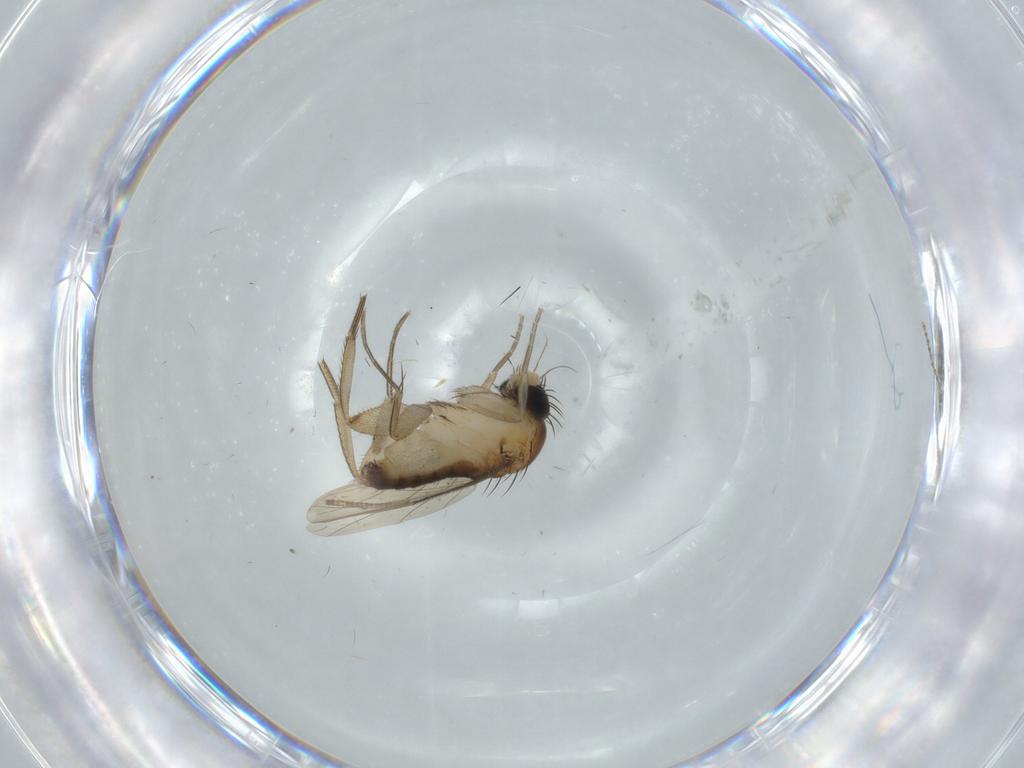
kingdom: Animalia
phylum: Arthropoda
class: Insecta
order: Diptera
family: Phoridae
